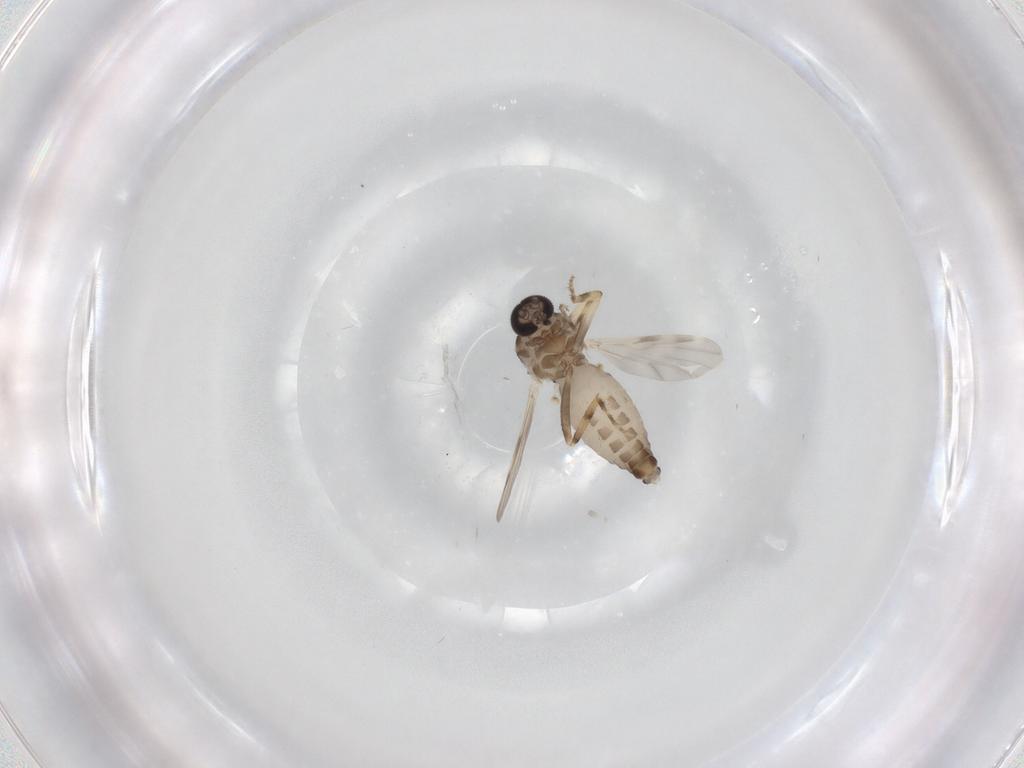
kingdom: Animalia
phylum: Arthropoda
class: Insecta
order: Diptera
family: Ceratopogonidae
